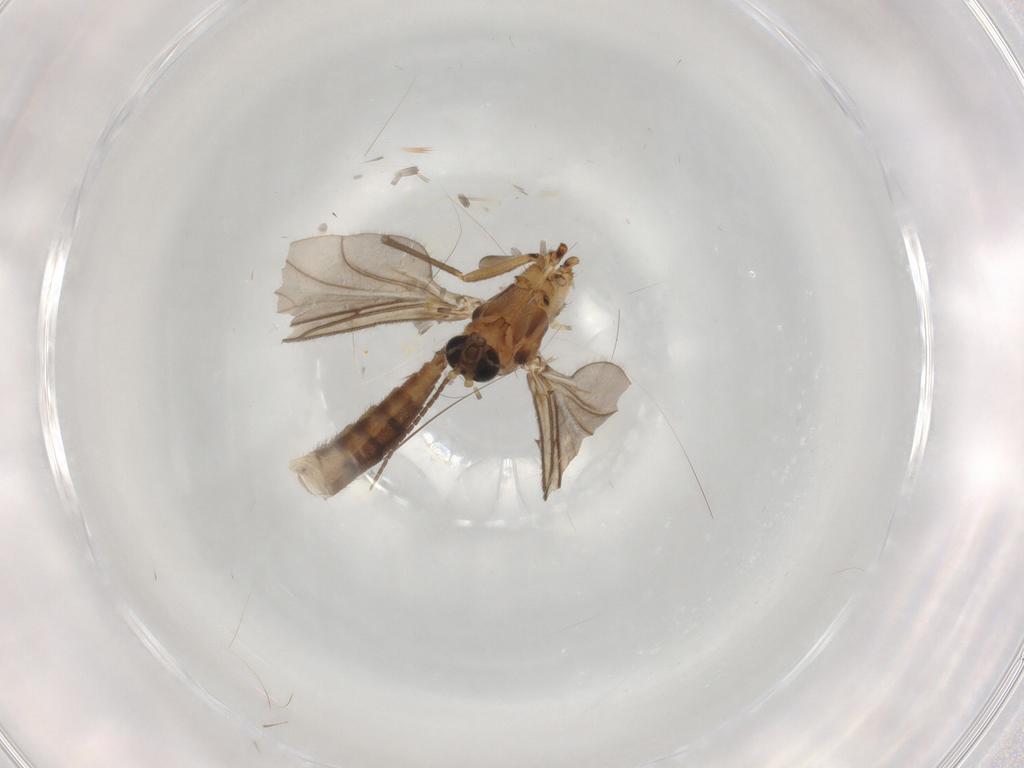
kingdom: Animalia
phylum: Arthropoda
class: Insecta
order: Diptera
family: Sciaridae
